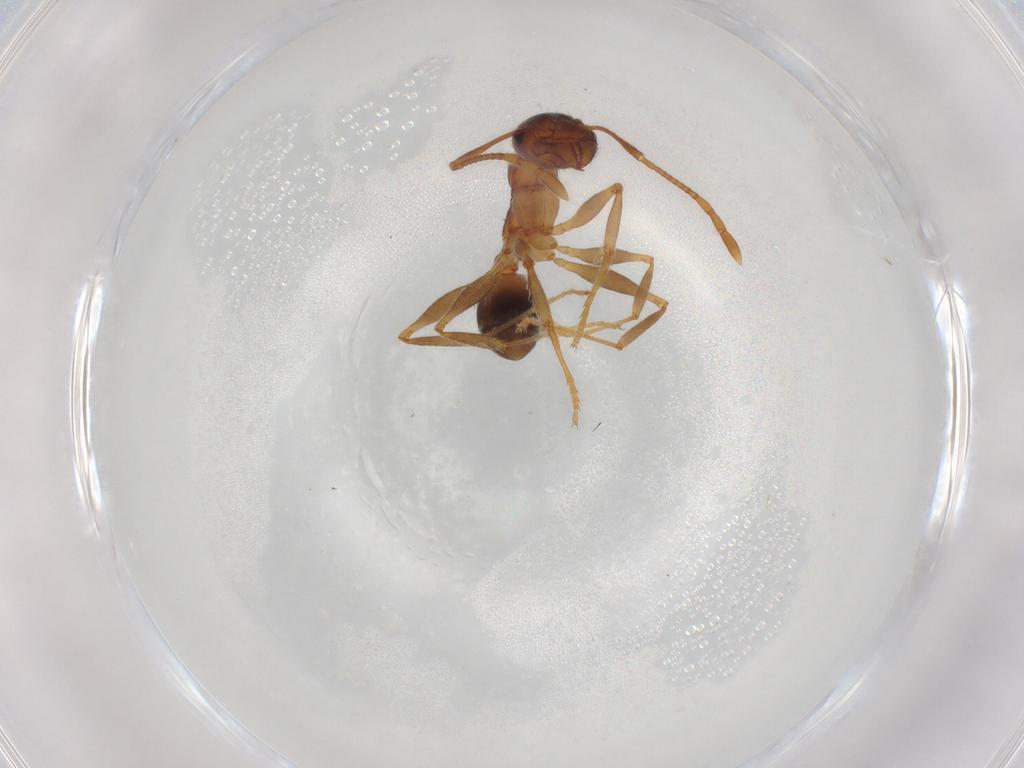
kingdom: Animalia
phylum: Arthropoda
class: Insecta
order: Hymenoptera
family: Formicidae
